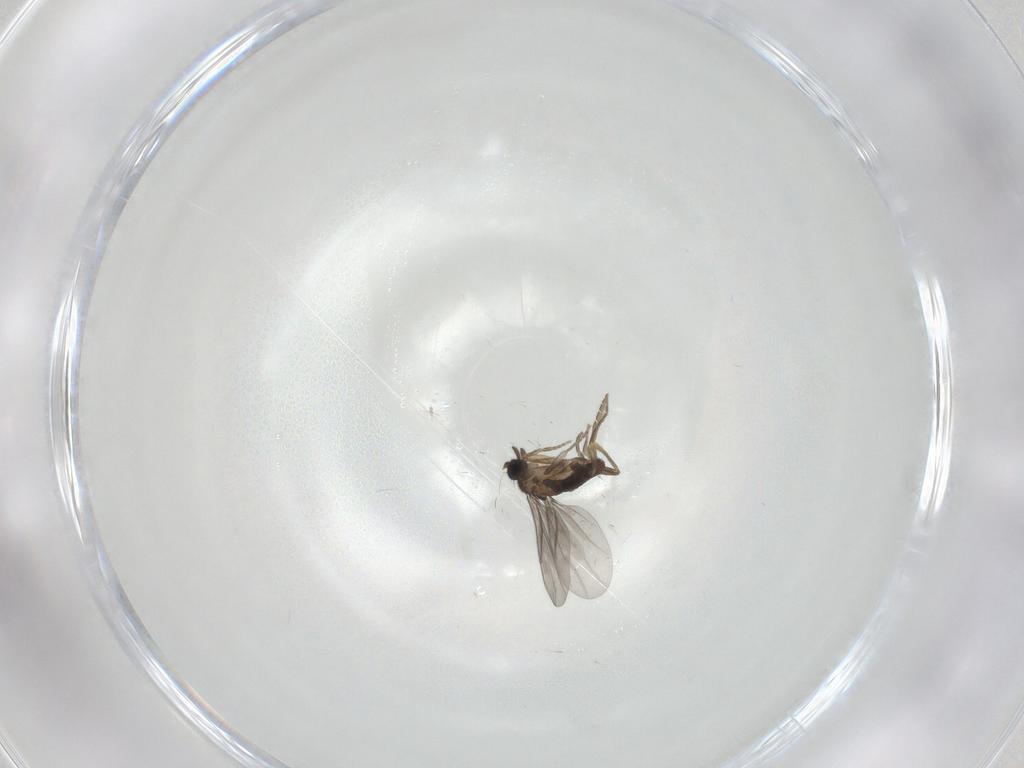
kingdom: Animalia
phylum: Arthropoda
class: Insecta
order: Diptera
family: Ceratopogonidae
